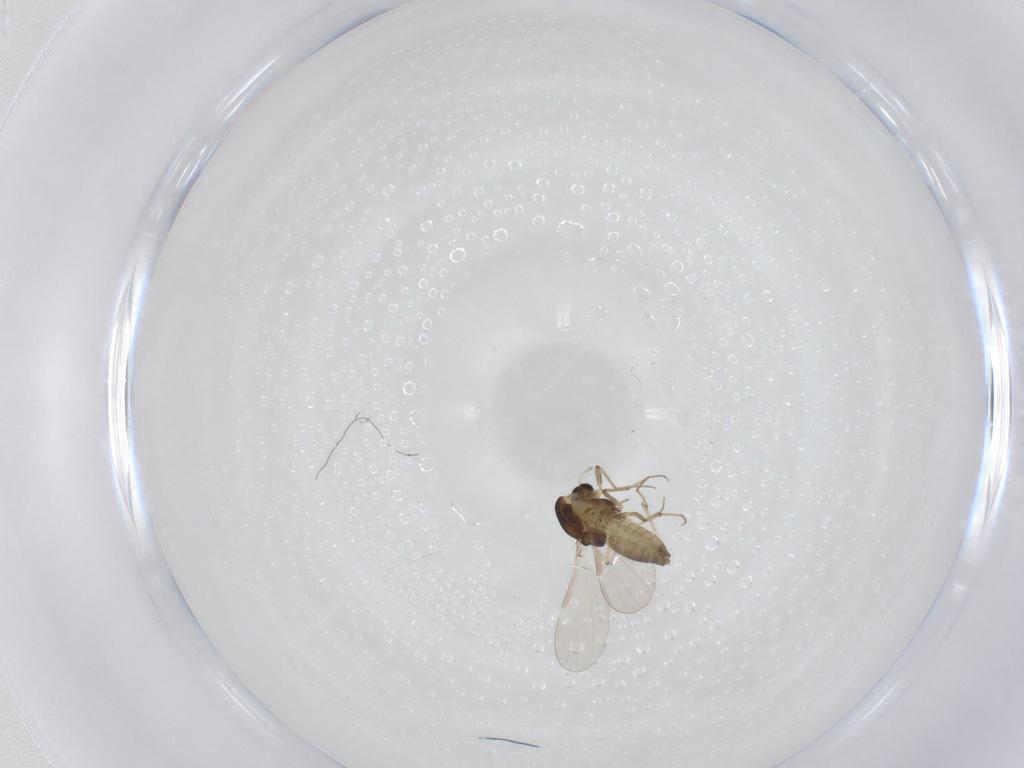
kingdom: Animalia
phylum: Arthropoda
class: Insecta
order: Diptera
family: Chironomidae
